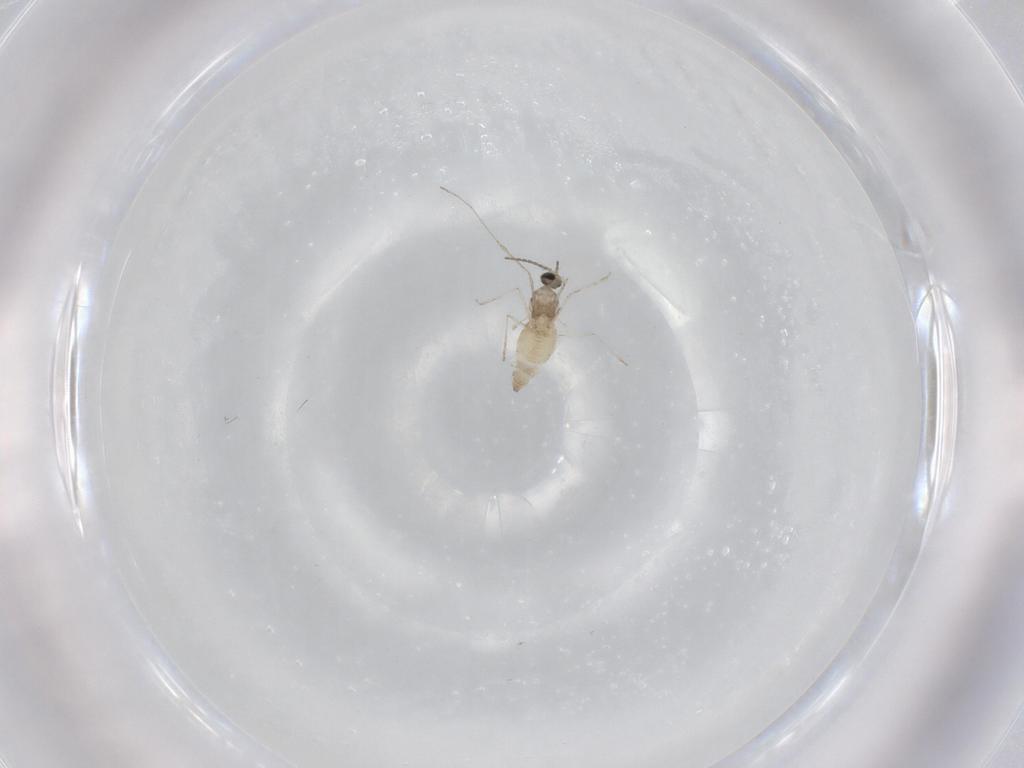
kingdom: Animalia
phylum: Arthropoda
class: Insecta
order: Diptera
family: Cecidomyiidae
